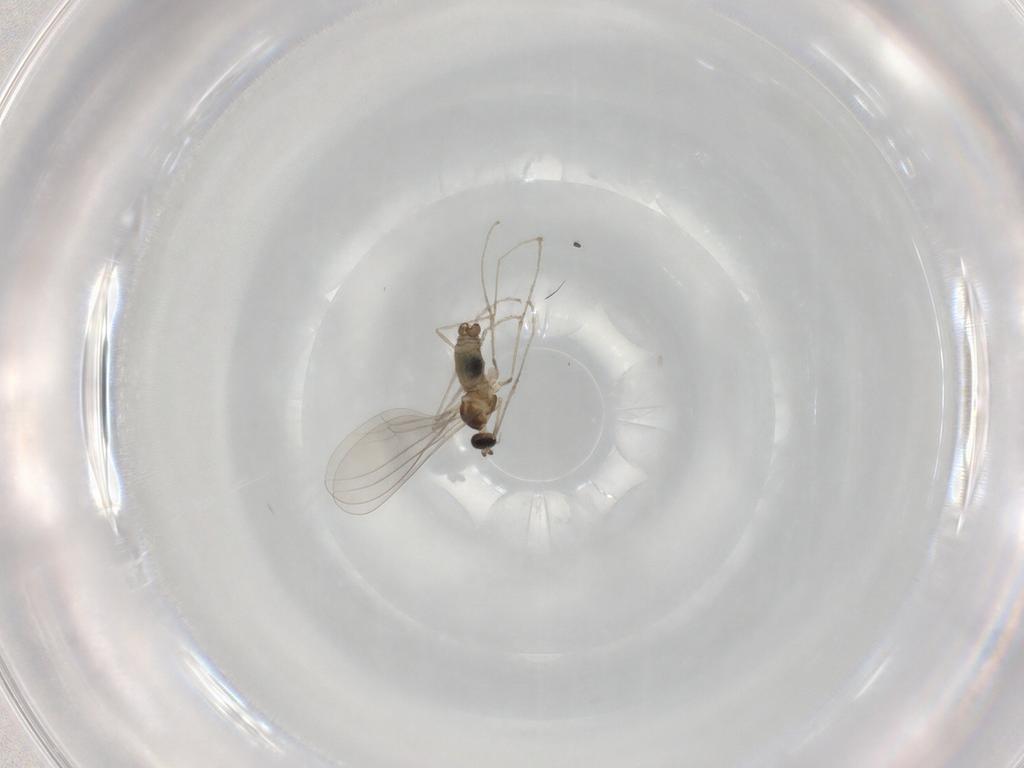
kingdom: Animalia
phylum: Arthropoda
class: Insecta
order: Diptera
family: Cecidomyiidae
